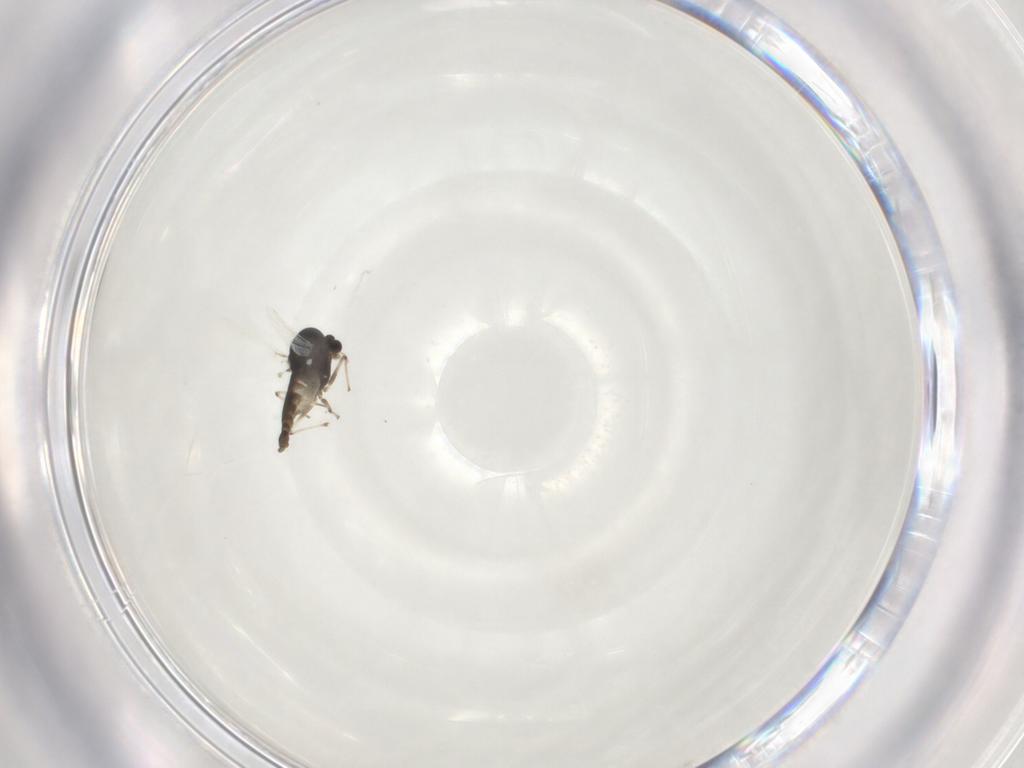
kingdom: Animalia
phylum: Arthropoda
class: Insecta
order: Diptera
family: Chironomidae
